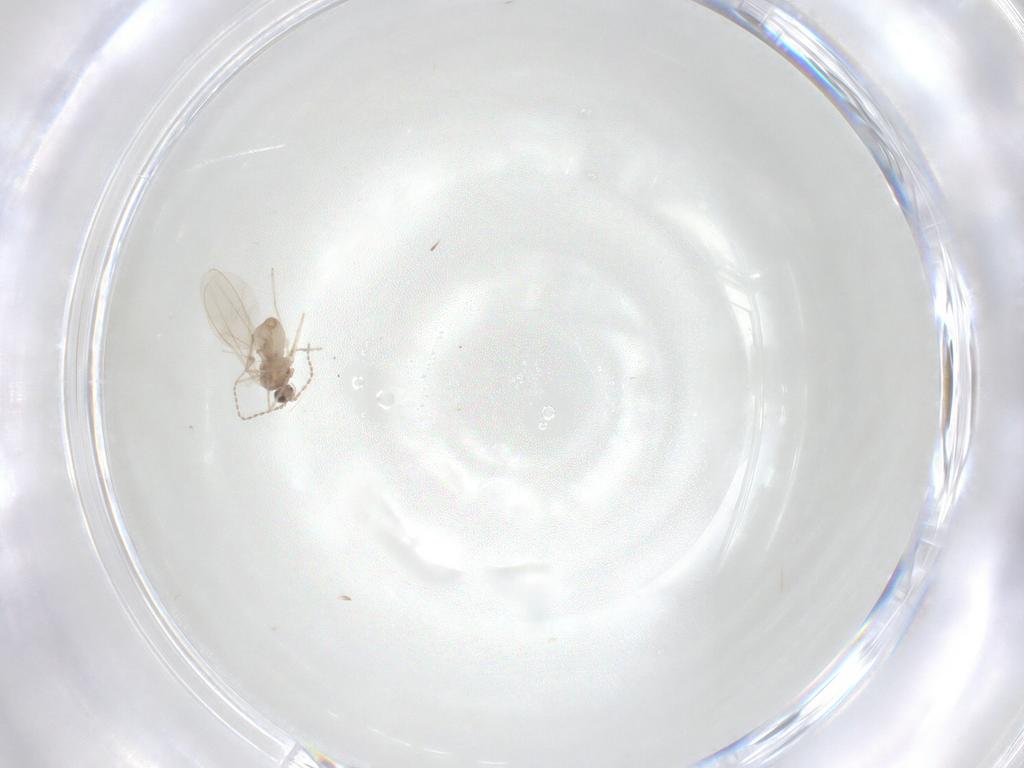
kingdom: Animalia
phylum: Arthropoda
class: Insecta
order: Diptera
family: Cecidomyiidae
